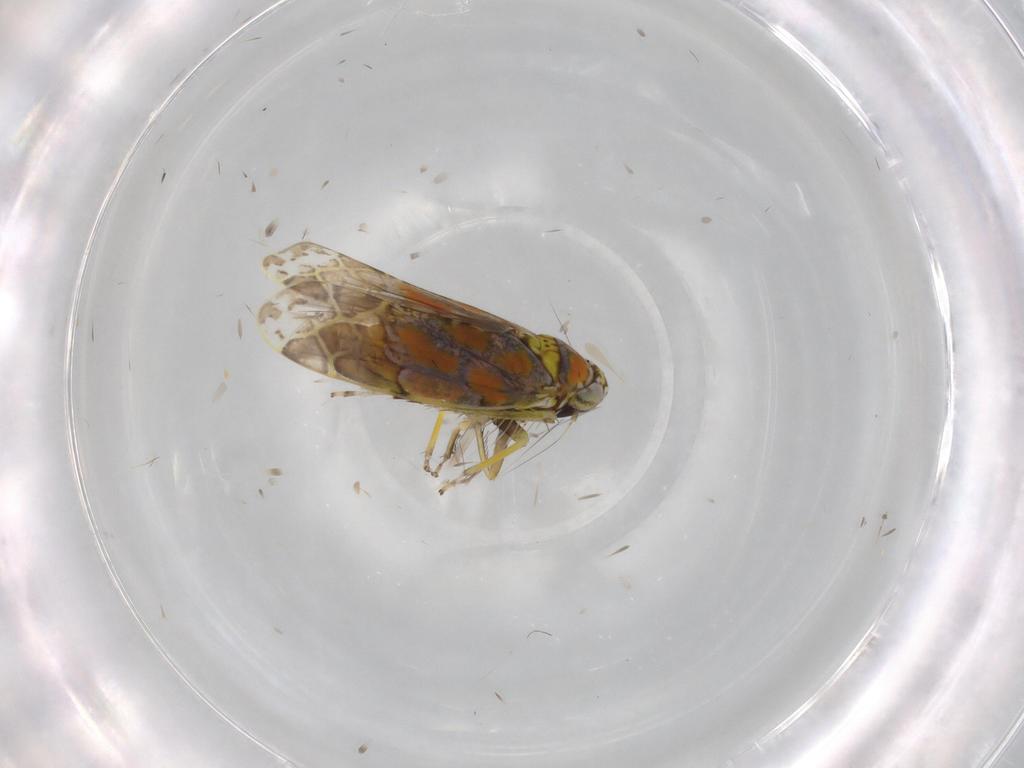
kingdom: Animalia
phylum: Arthropoda
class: Insecta
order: Hemiptera
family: Cicadellidae
